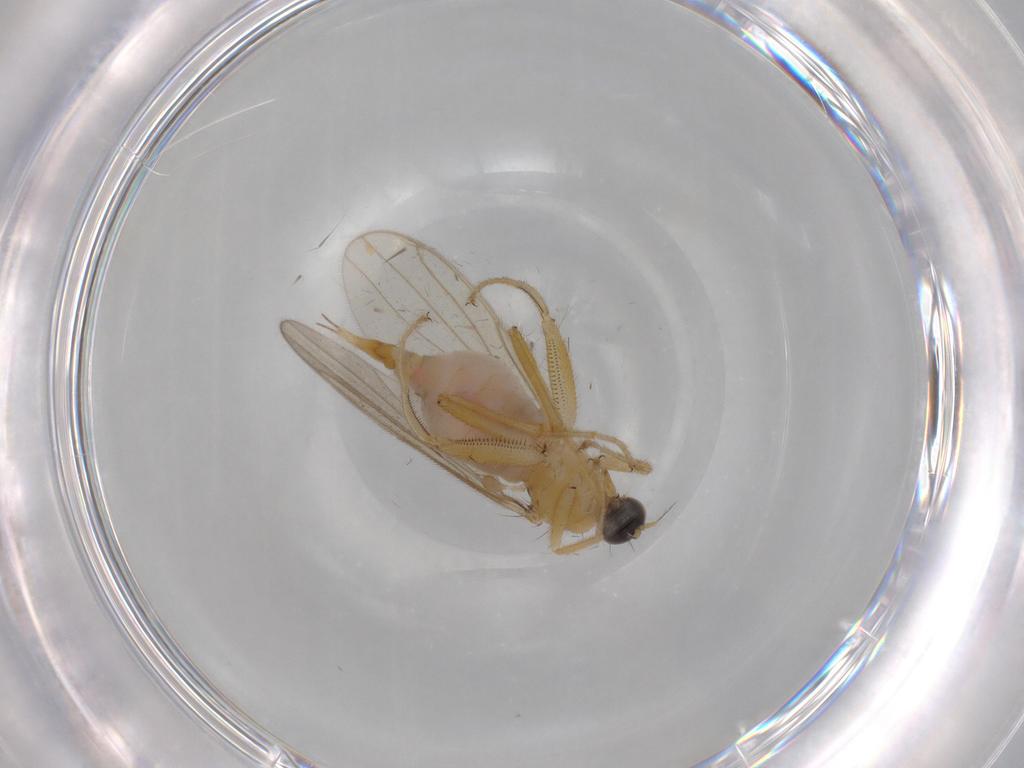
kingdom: Animalia
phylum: Arthropoda
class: Insecta
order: Diptera
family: Hybotidae
